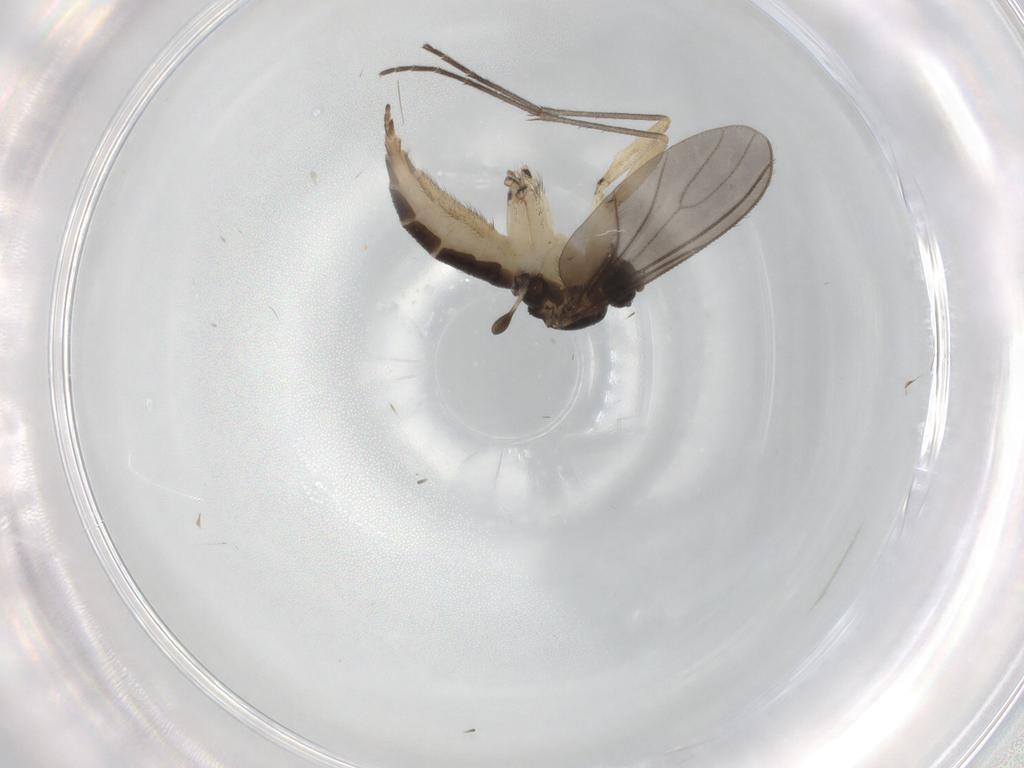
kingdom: Animalia
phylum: Arthropoda
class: Insecta
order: Diptera
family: Sciaridae
